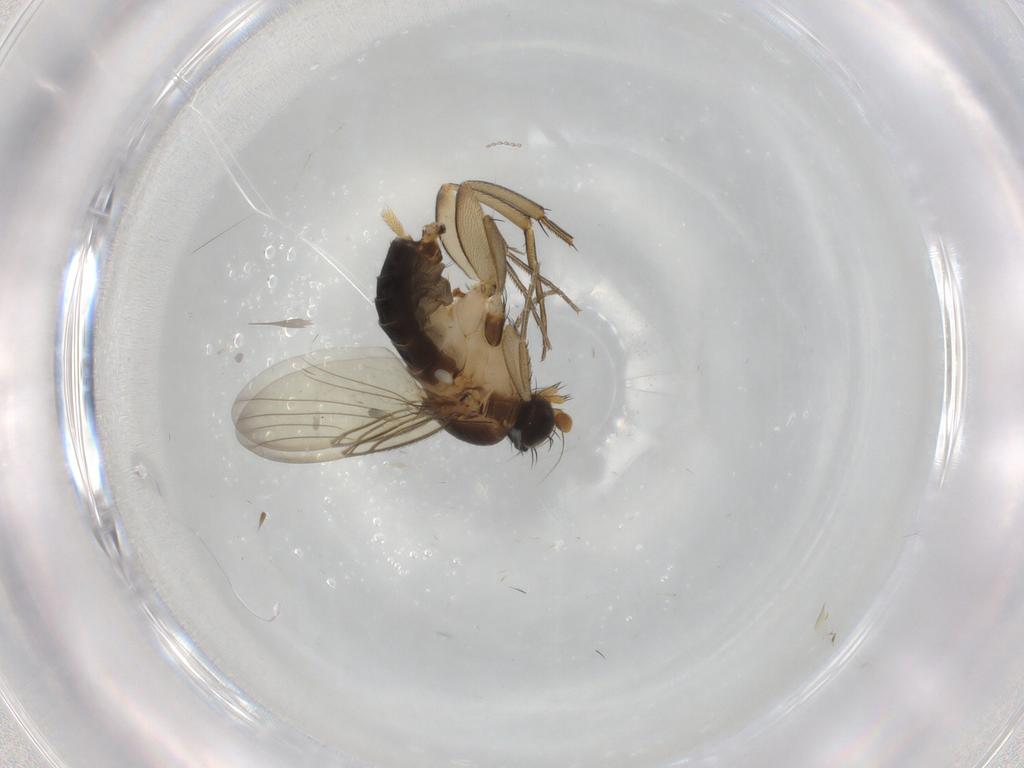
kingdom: Animalia
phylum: Arthropoda
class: Insecta
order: Diptera
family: Phoridae
